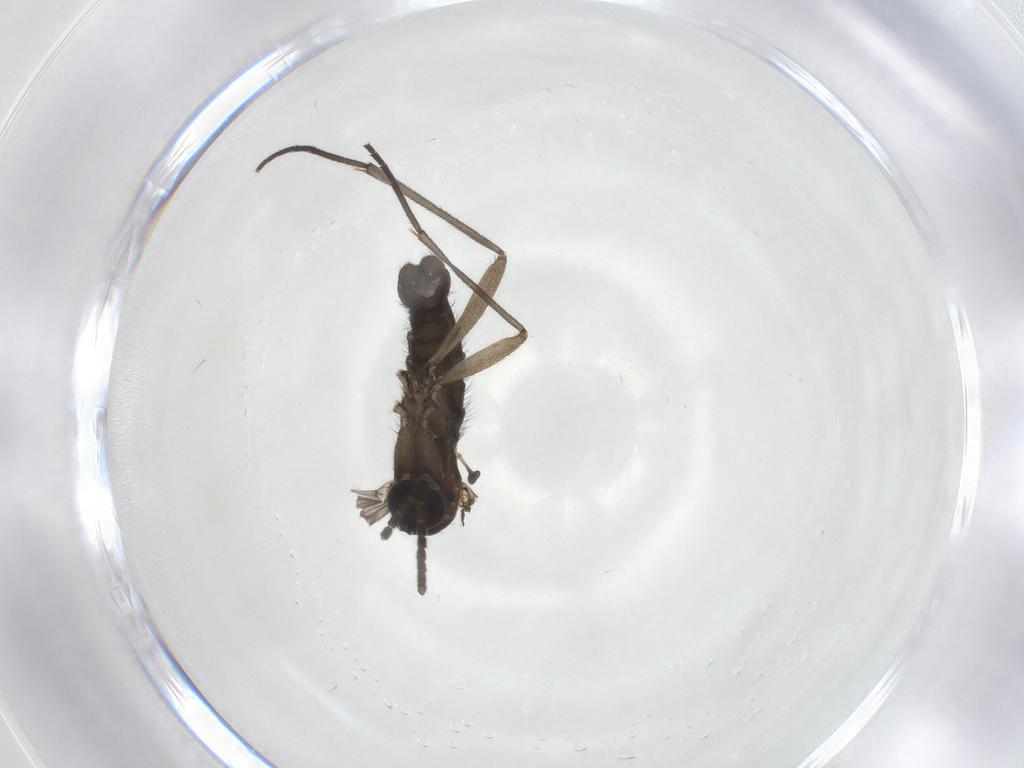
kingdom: Animalia
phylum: Arthropoda
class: Insecta
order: Diptera
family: Sciaridae
